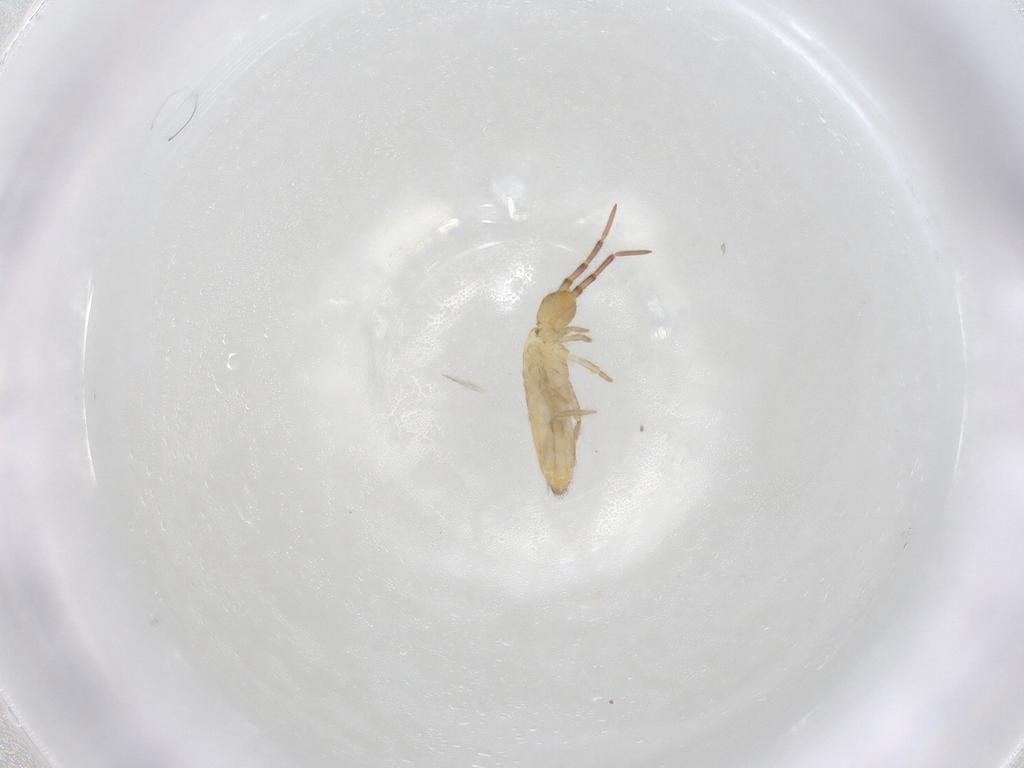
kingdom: Animalia
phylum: Arthropoda
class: Collembola
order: Entomobryomorpha
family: Entomobryidae
